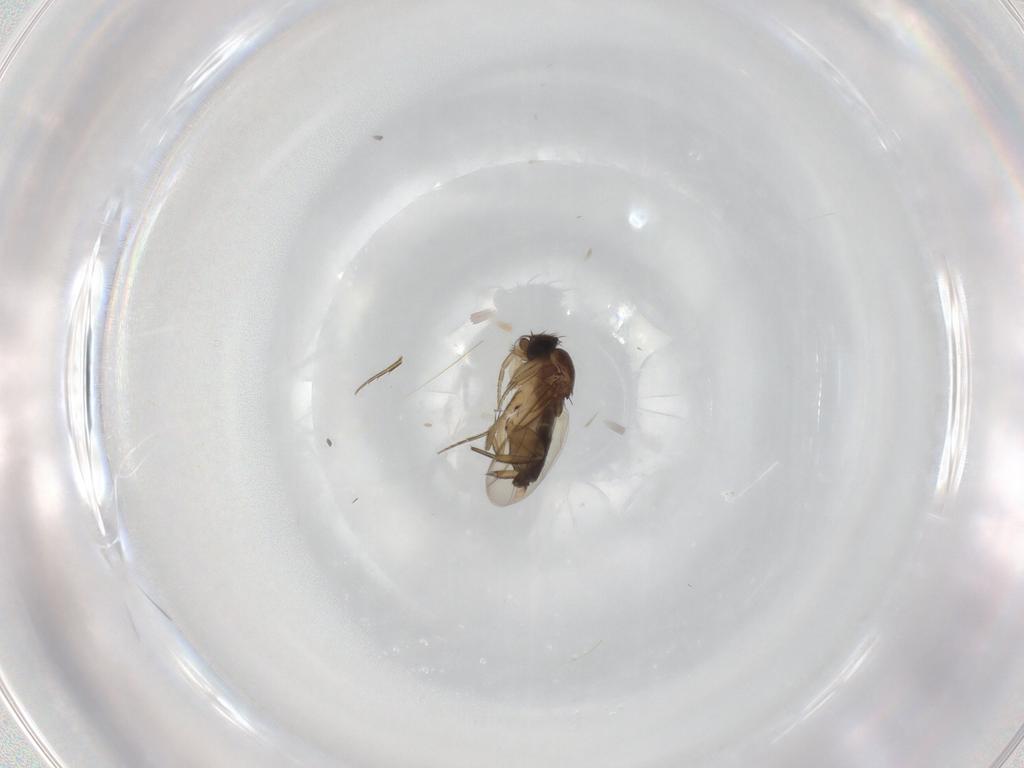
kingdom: Animalia
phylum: Arthropoda
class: Insecta
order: Diptera
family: Phoridae
